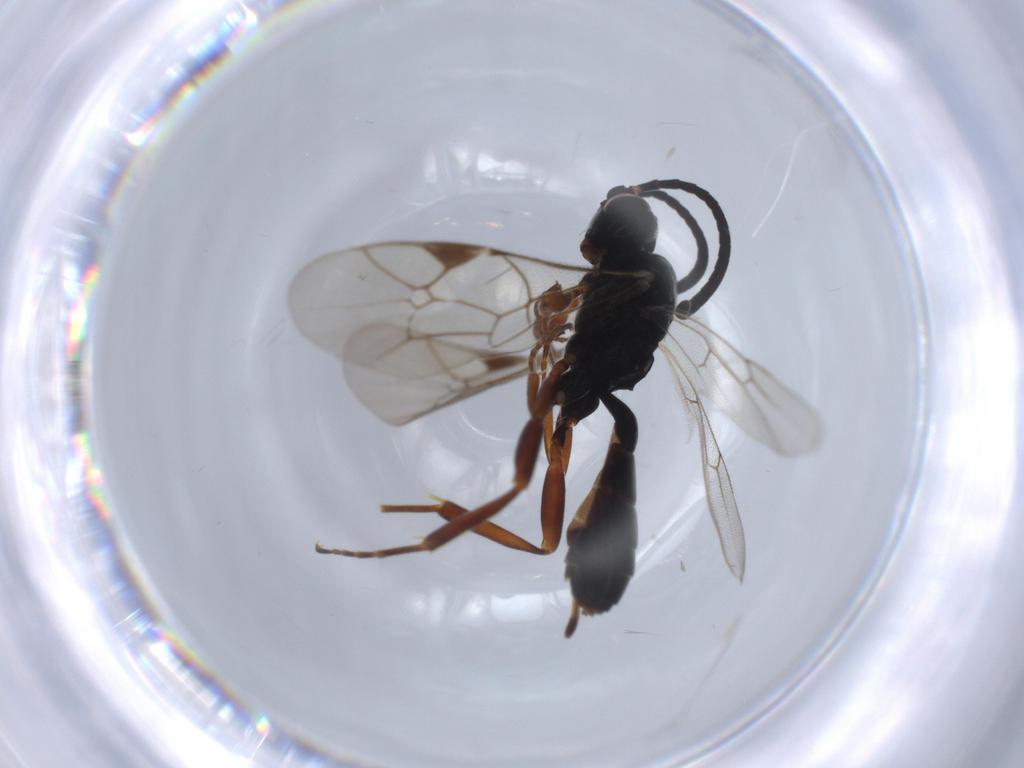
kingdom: Animalia
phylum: Arthropoda
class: Insecta
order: Hymenoptera
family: Ichneumonidae
